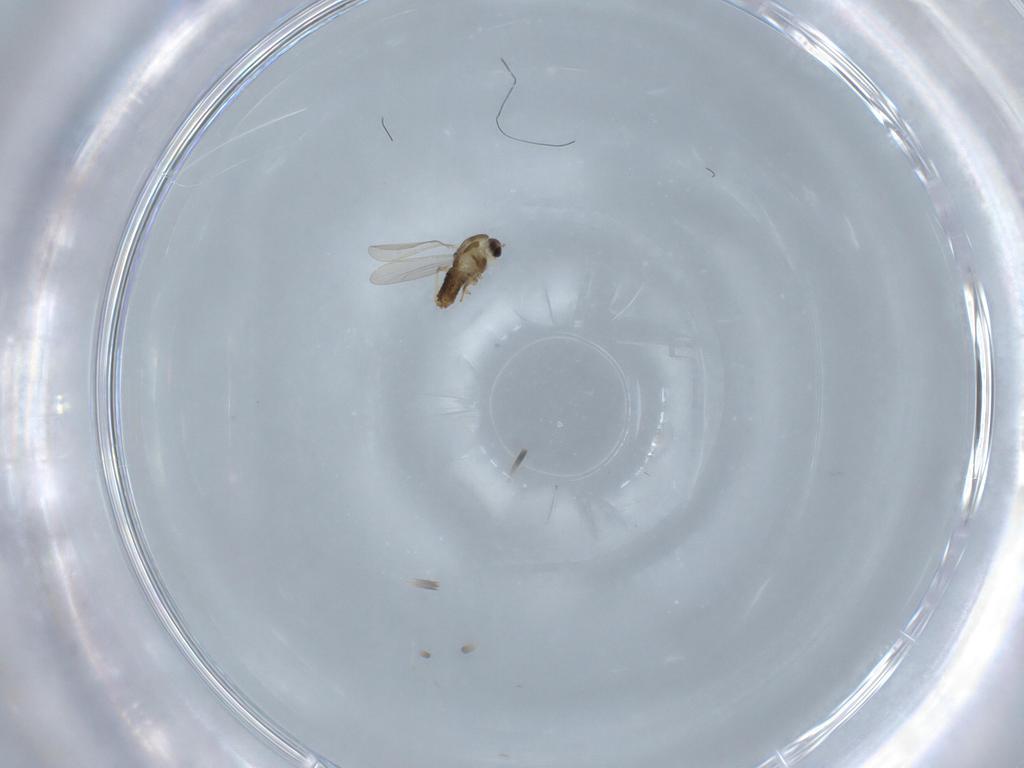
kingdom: Animalia
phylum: Arthropoda
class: Insecta
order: Diptera
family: Chironomidae
